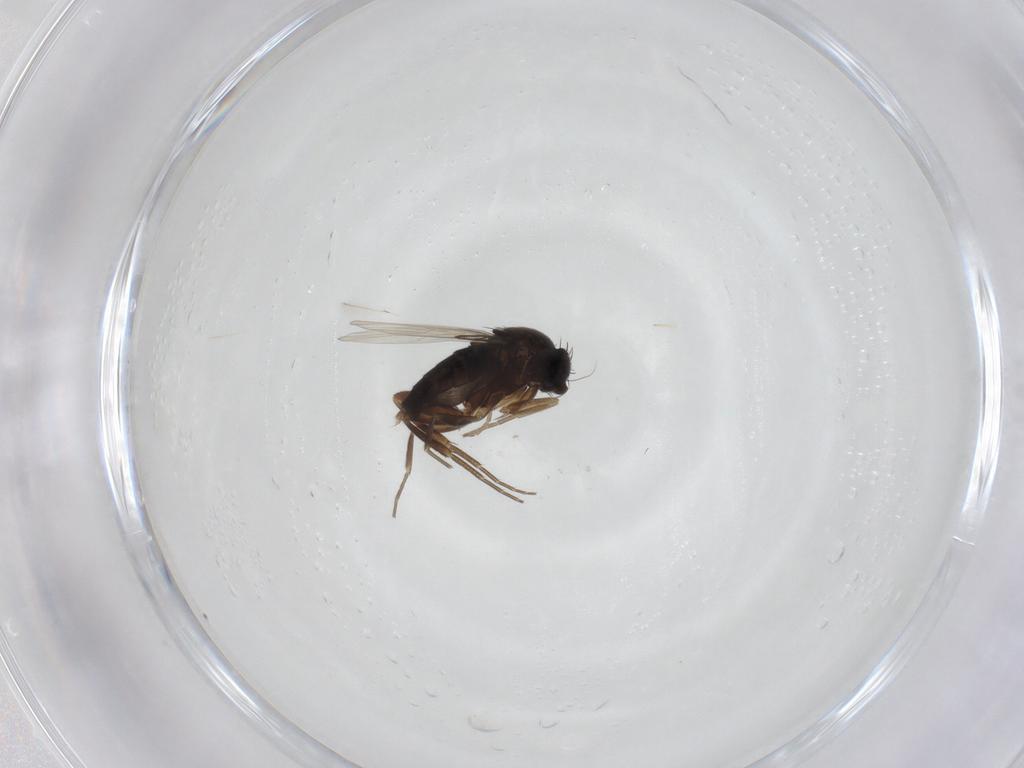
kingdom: Animalia
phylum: Arthropoda
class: Insecta
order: Diptera
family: Phoridae
